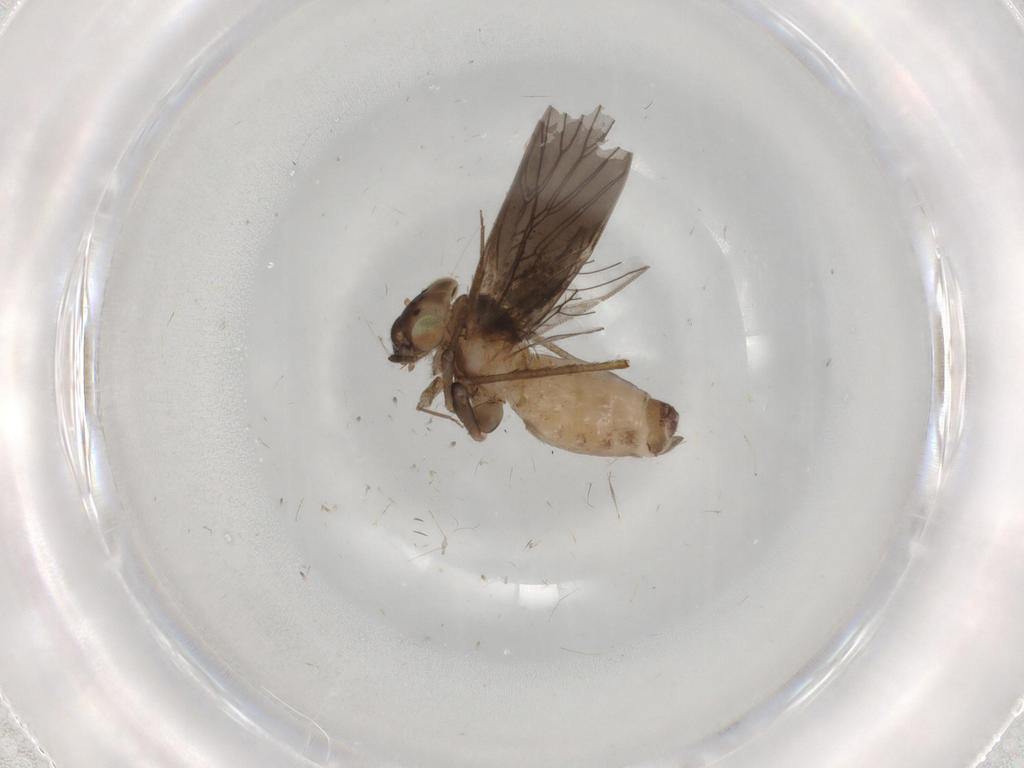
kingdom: Animalia
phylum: Arthropoda
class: Insecta
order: Psocodea
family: Lepidopsocidae
